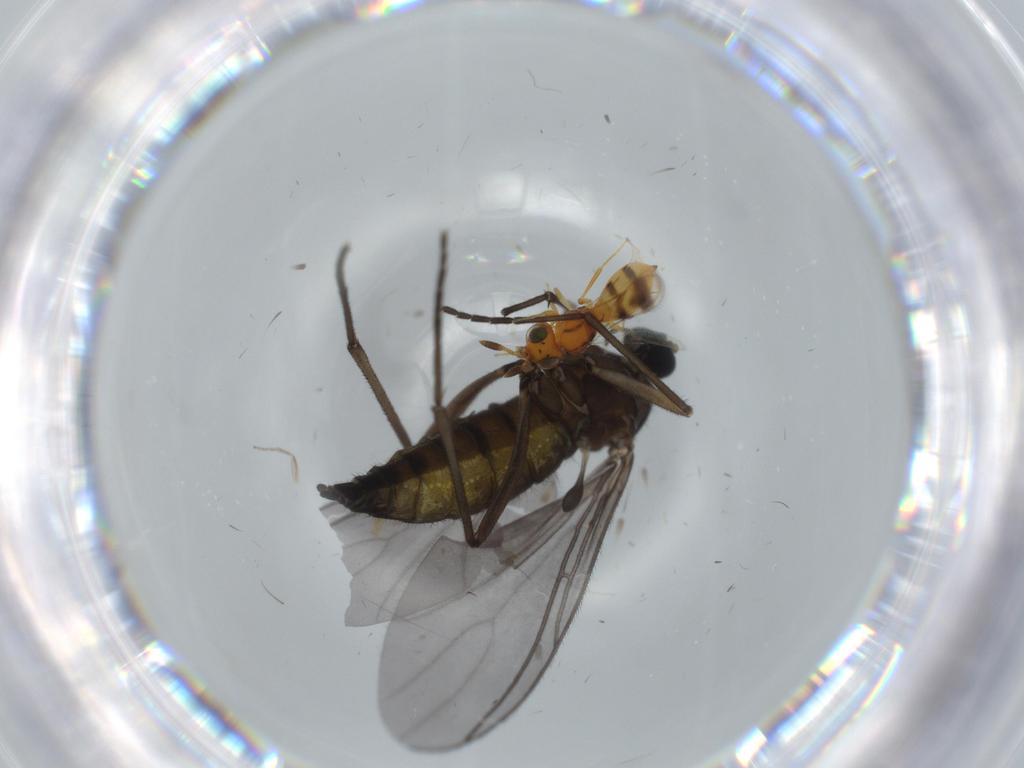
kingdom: Animalia
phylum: Arthropoda
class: Insecta
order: Diptera
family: Sciaridae
